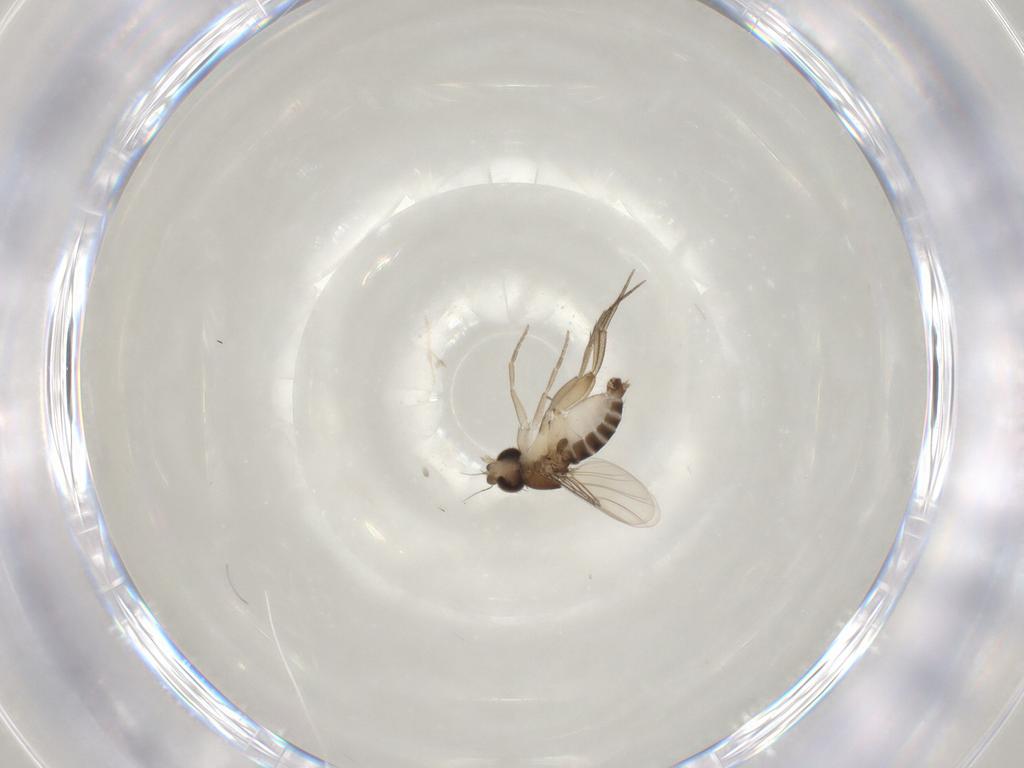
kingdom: Animalia
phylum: Arthropoda
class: Insecta
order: Diptera
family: Phoridae
